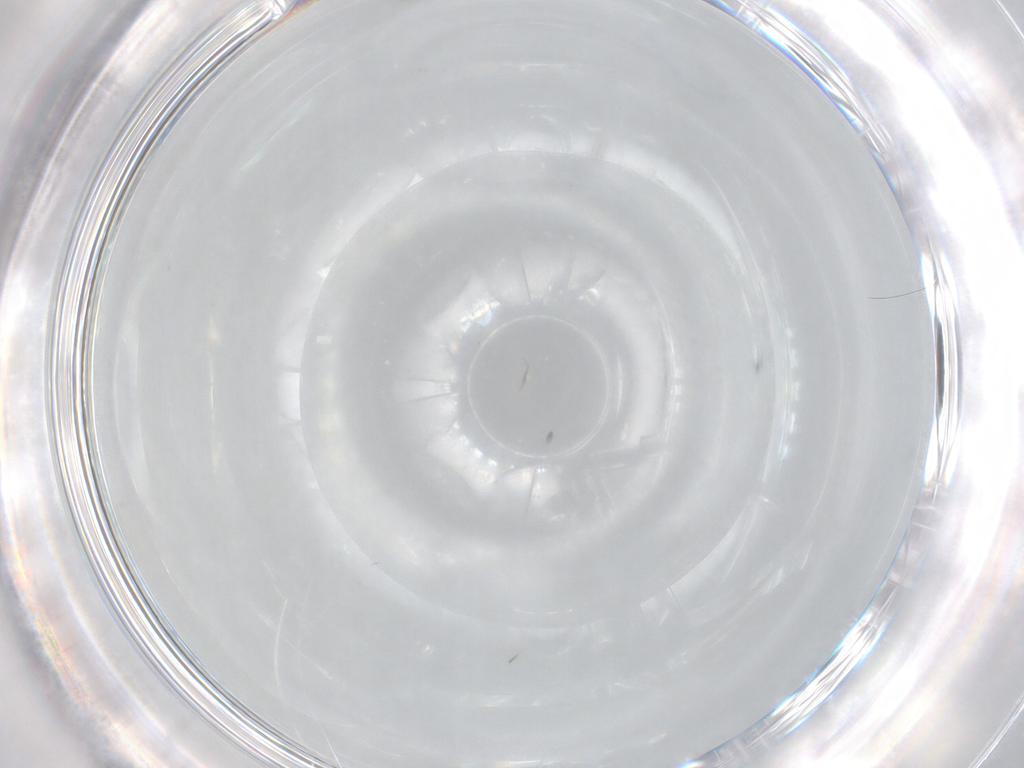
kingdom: Animalia
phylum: Arthropoda
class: Insecta
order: Diptera
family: Cecidomyiidae
